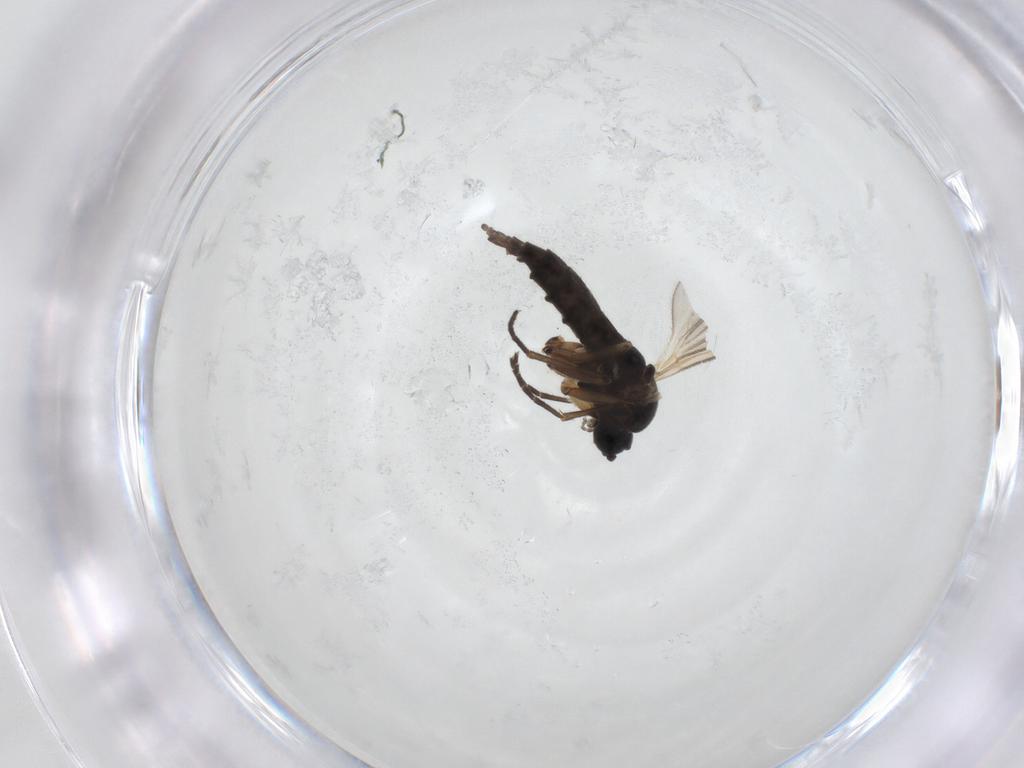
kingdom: Animalia
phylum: Arthropoda
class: Insecta
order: Diptera
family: Sciaridae
